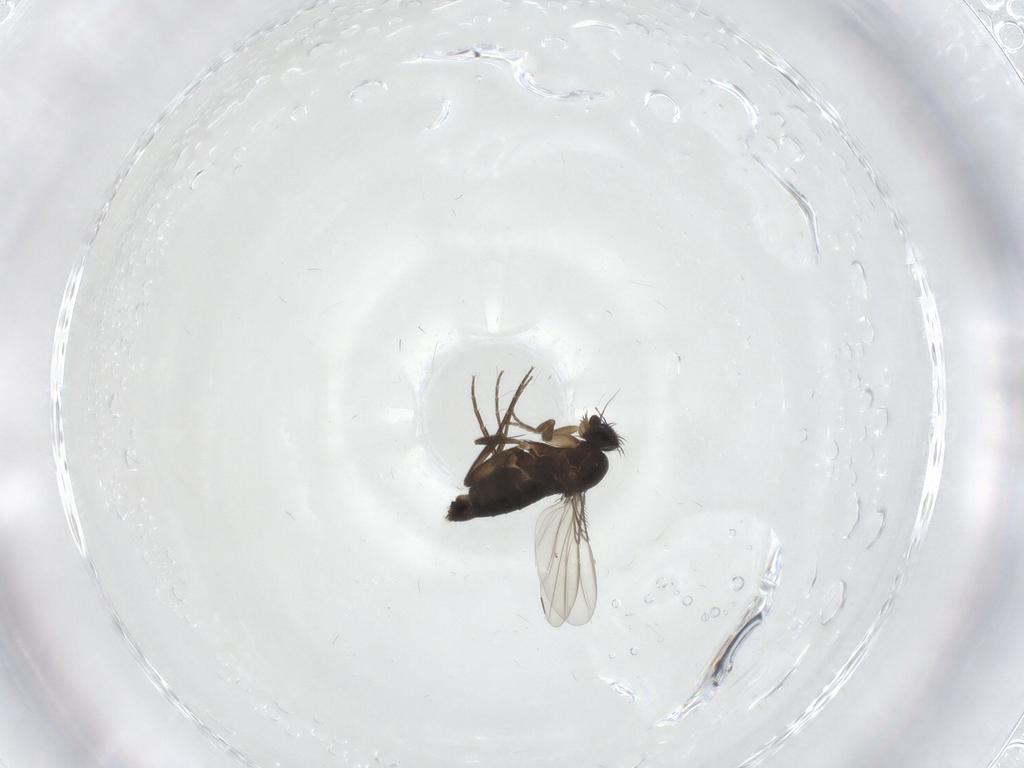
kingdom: Animalia
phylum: Arthropoda
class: Insecta
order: Diptera
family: Phoridae
